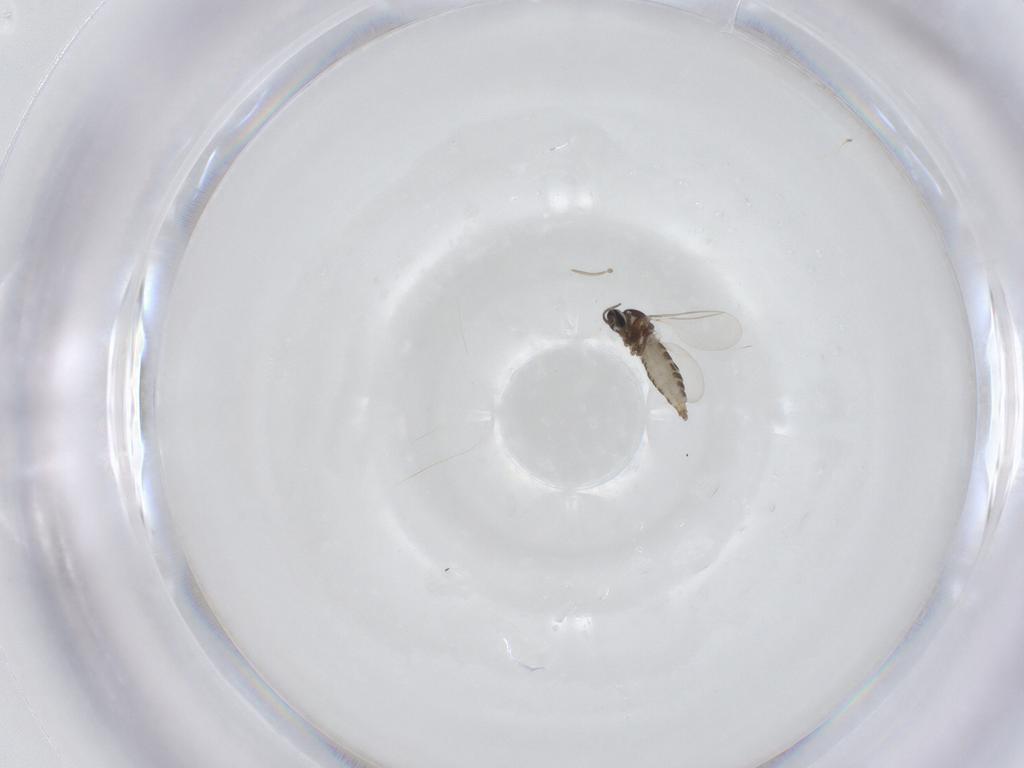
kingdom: Animalia
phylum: Arthropoda
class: Insecta
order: Diptera
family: Cecidomyiidae
